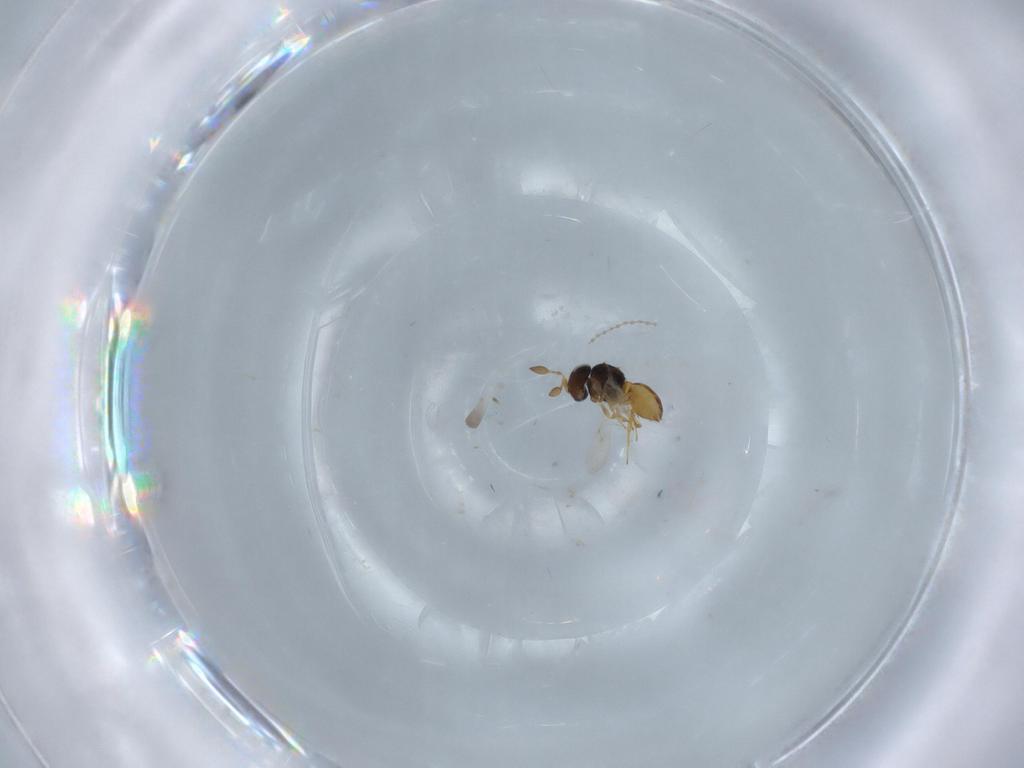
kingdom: Animalia
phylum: Arthropoda
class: Insecta
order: Hymenoptera
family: Scelionidae
